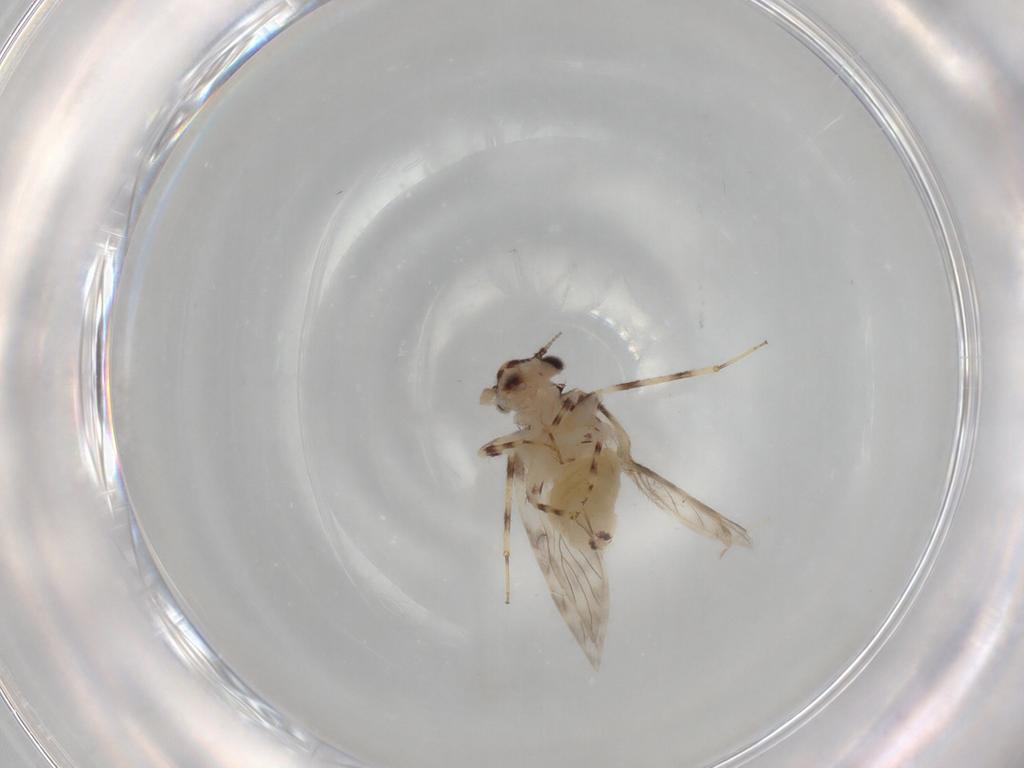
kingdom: Animalia
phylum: Arthropoda
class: Insecta
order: Psocodea
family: Lepidopsocidae
